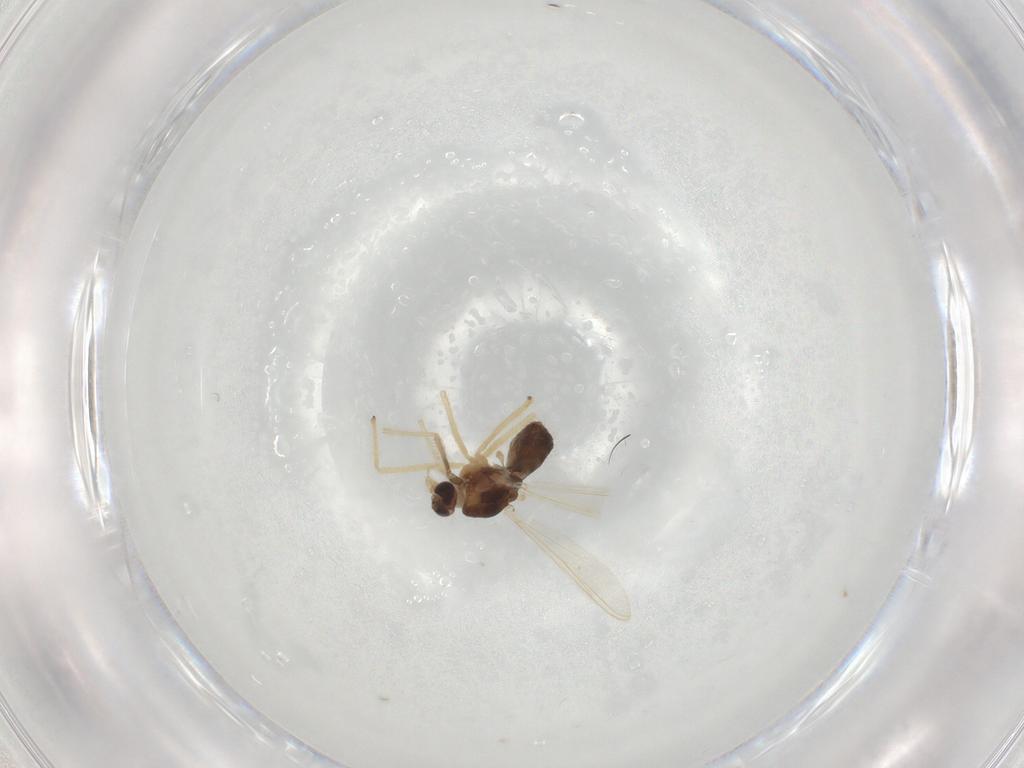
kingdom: Animalia
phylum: Arthropoda
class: Insecta
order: Diptera
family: Chironomidae
